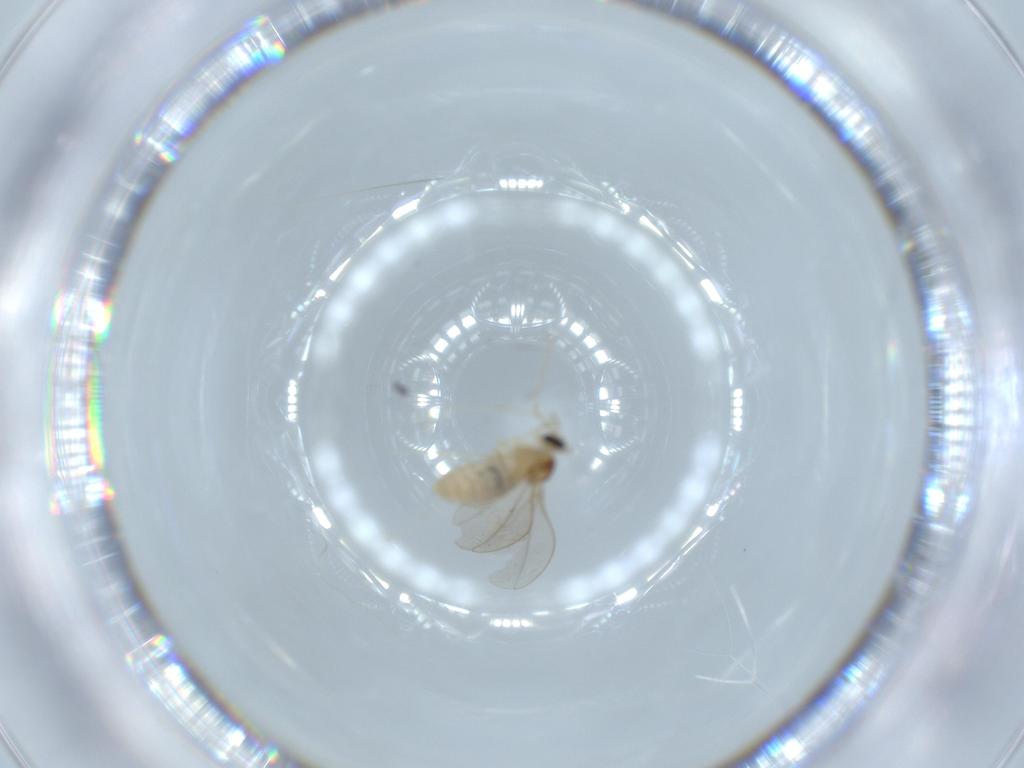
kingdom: Animalia
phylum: Arthropoda
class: Insecta
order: Diptera
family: Cecidomyiidae
